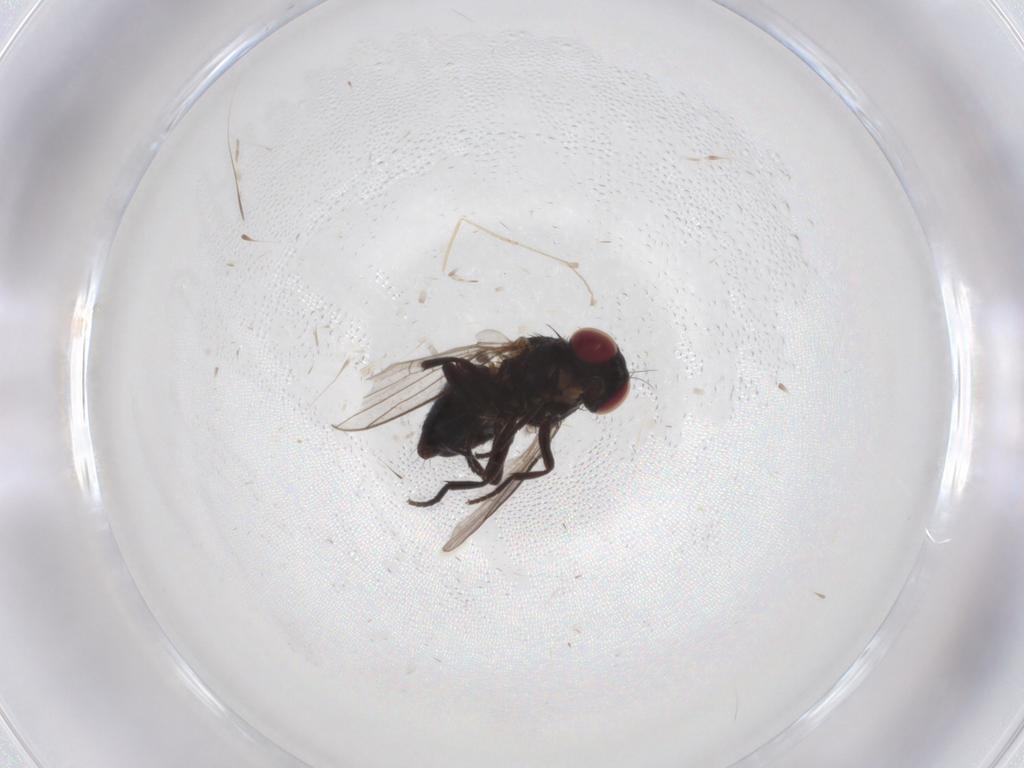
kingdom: Animalia
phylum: Arthropoda
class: Insecta
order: Diptera
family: Agromyzidae
